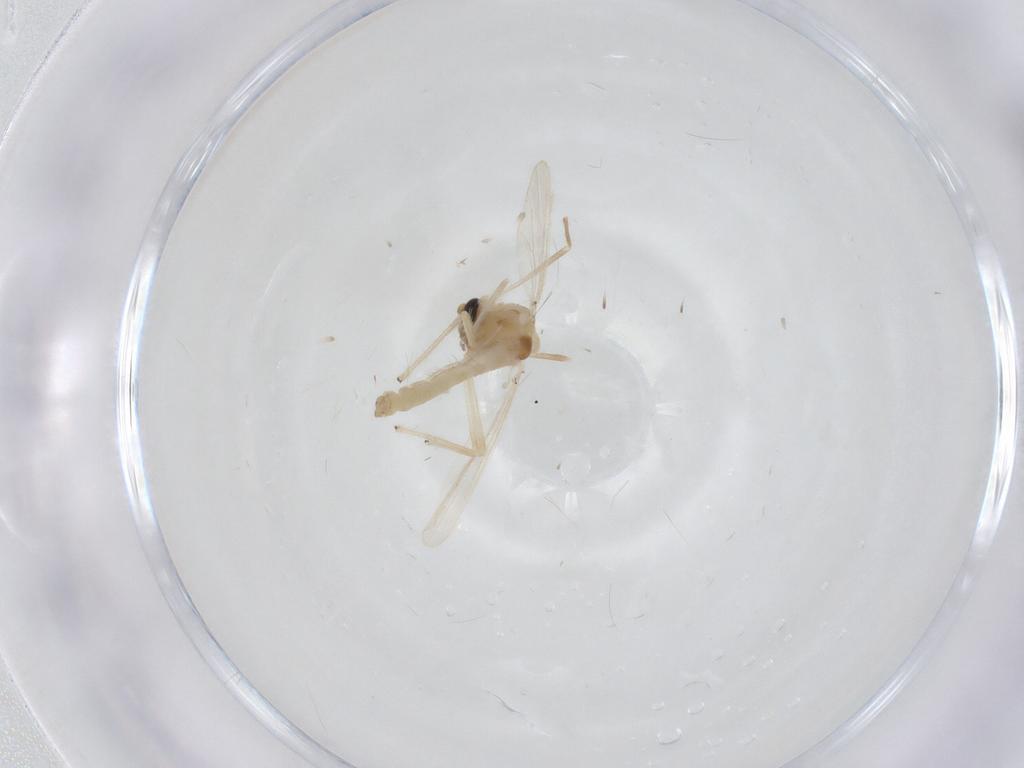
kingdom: Animalia
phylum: Arthropoda
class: Insecta
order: Diptera
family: Chironomidae
